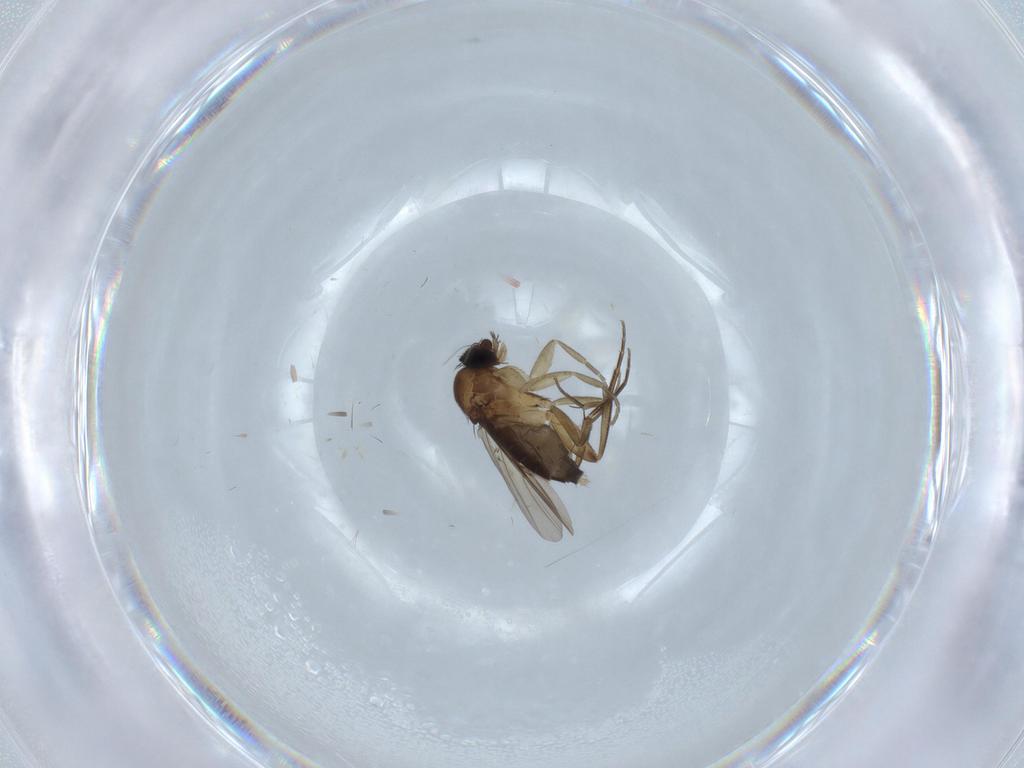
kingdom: Animalia
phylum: Arthropoda
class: Insecta
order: Diptera
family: Phoridae
